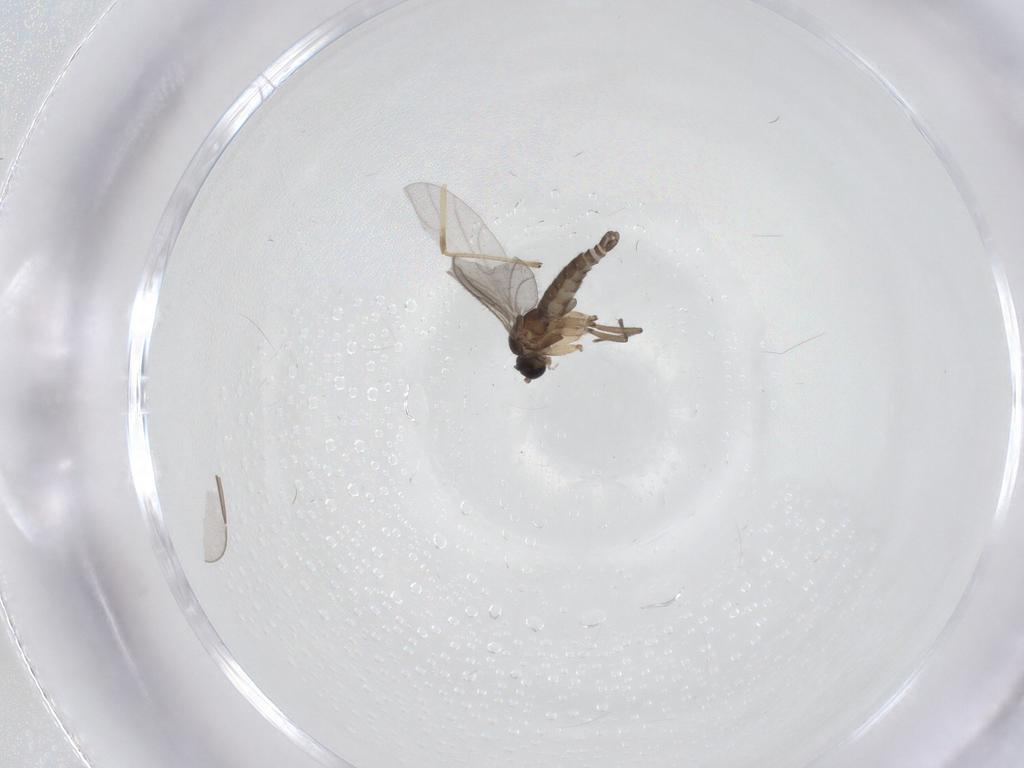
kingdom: Animalia
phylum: Arthropoda
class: Insecta
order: Diptera
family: Chironomidae
